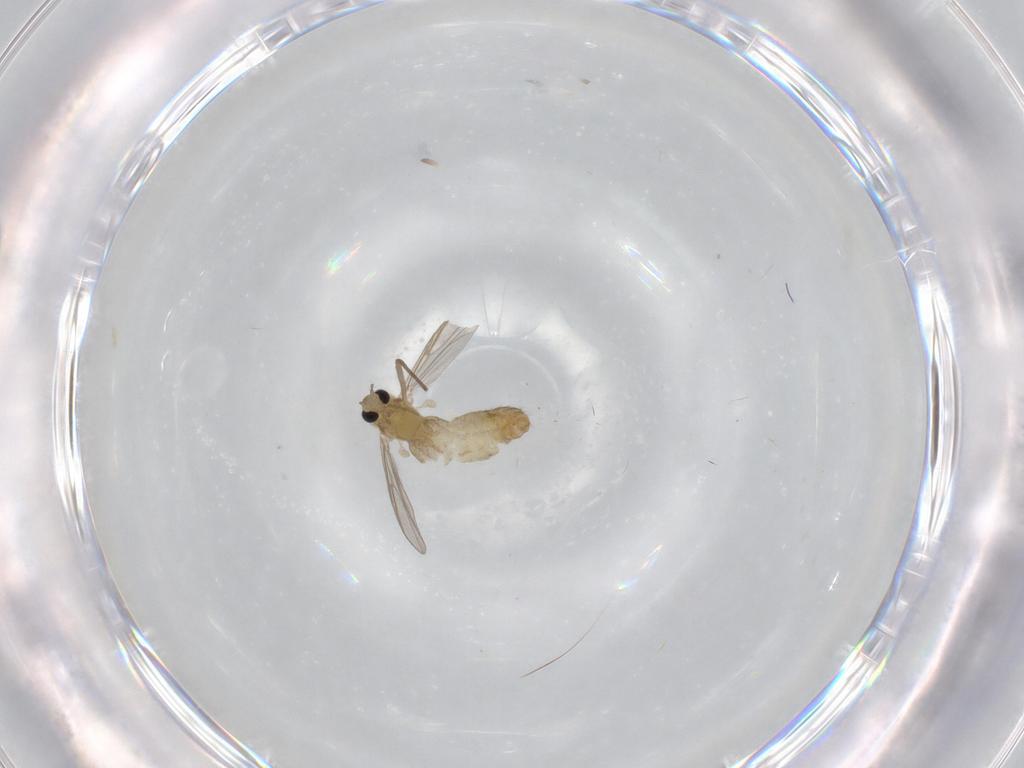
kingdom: Animalia
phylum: Arthropoda
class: Insecta
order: Diptera
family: Chironomidae
